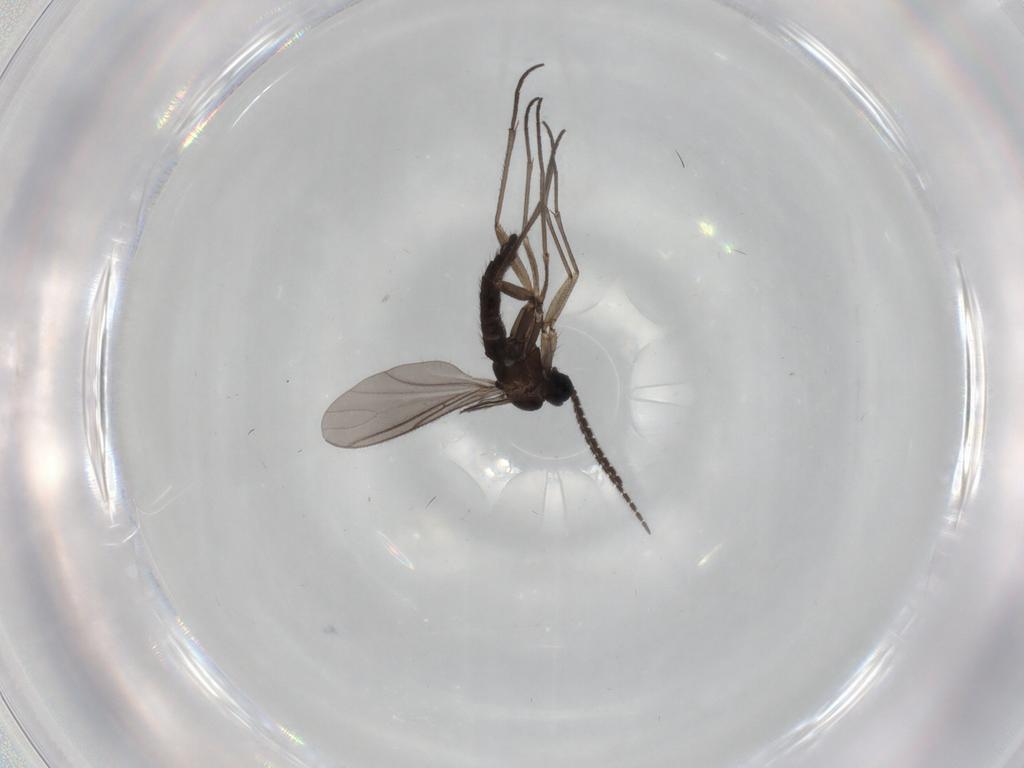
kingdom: Animalia
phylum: Arthropoda
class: Insecta
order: Diptera
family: Sciaridae
